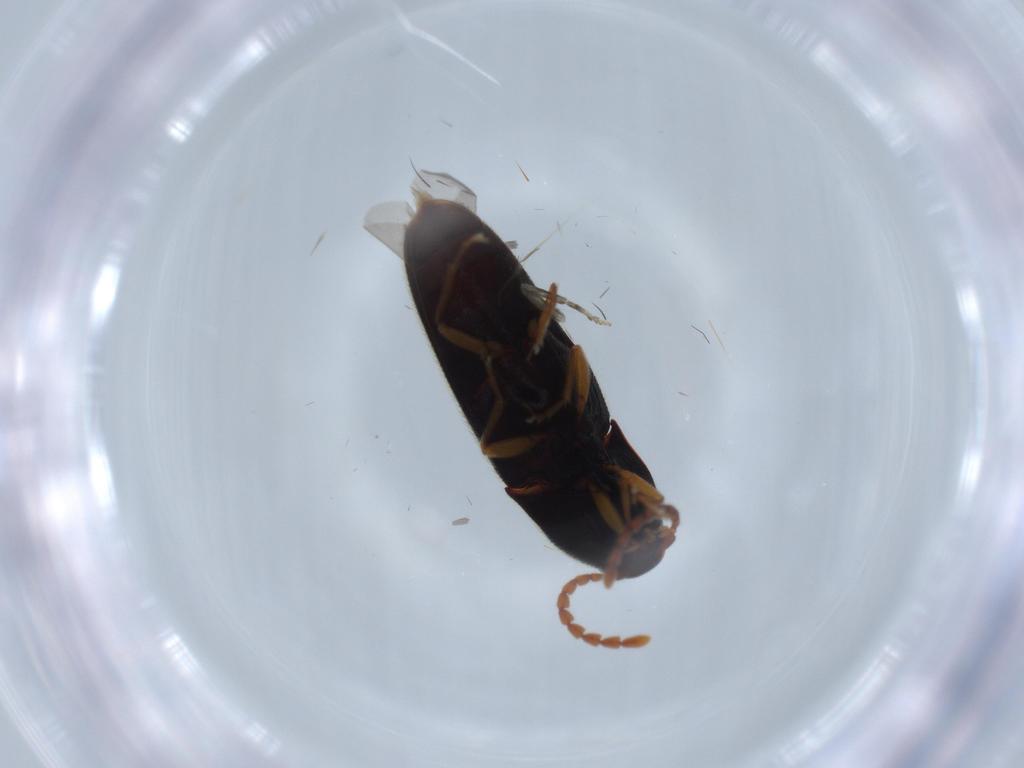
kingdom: Animalia
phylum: Arthropoda
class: Insecta
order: Coleoptera
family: Elateridae
